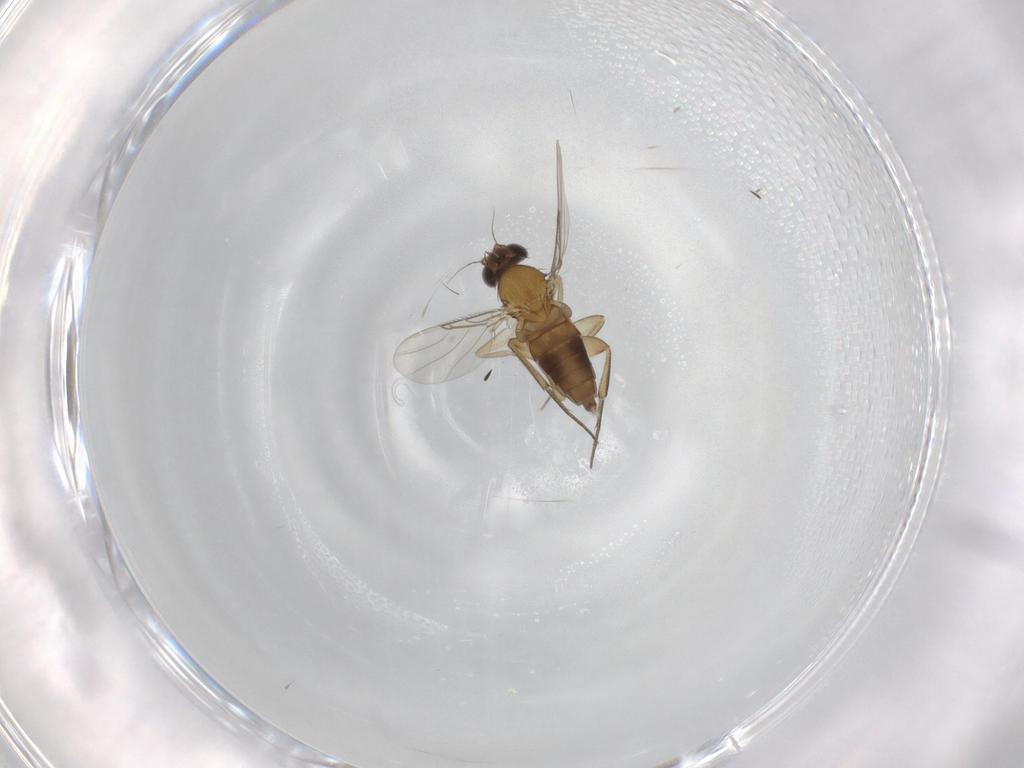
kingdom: Animalia
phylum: Arthropoda
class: Insecta
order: Diptera
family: Phoridae
